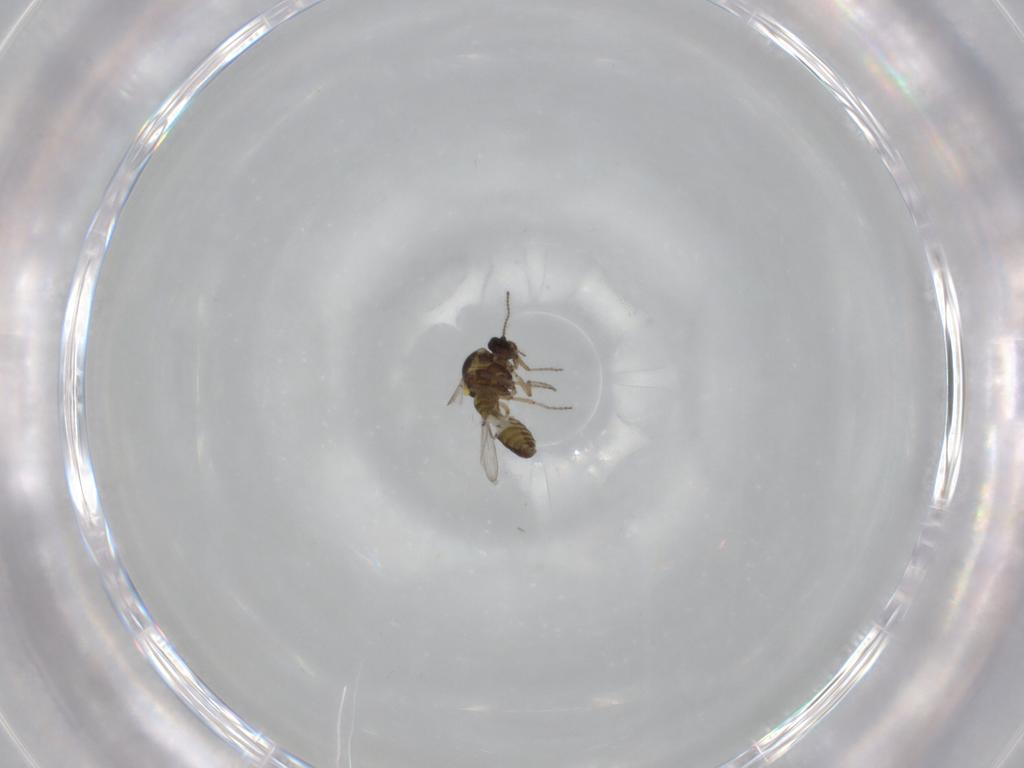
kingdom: Animalia
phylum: Arthropoda
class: Insecta
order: Diptera
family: Ceratopogonidae
